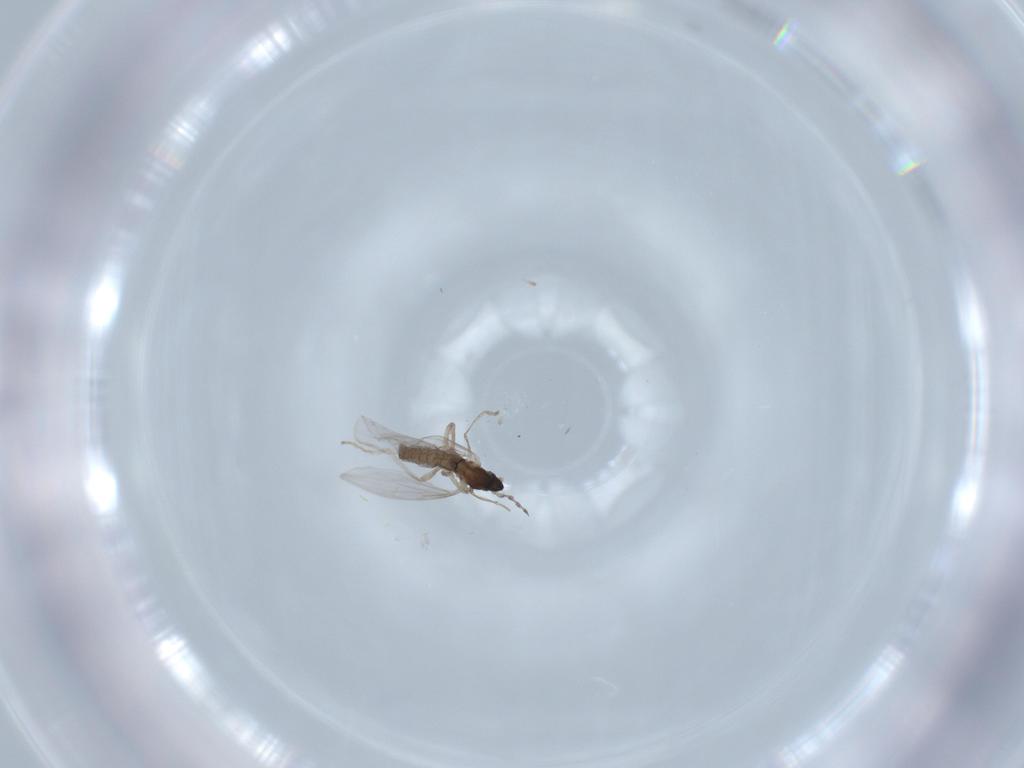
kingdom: Animalia
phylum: Arthropoda
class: Insecta
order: Diptera
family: Cecidomyiidae
